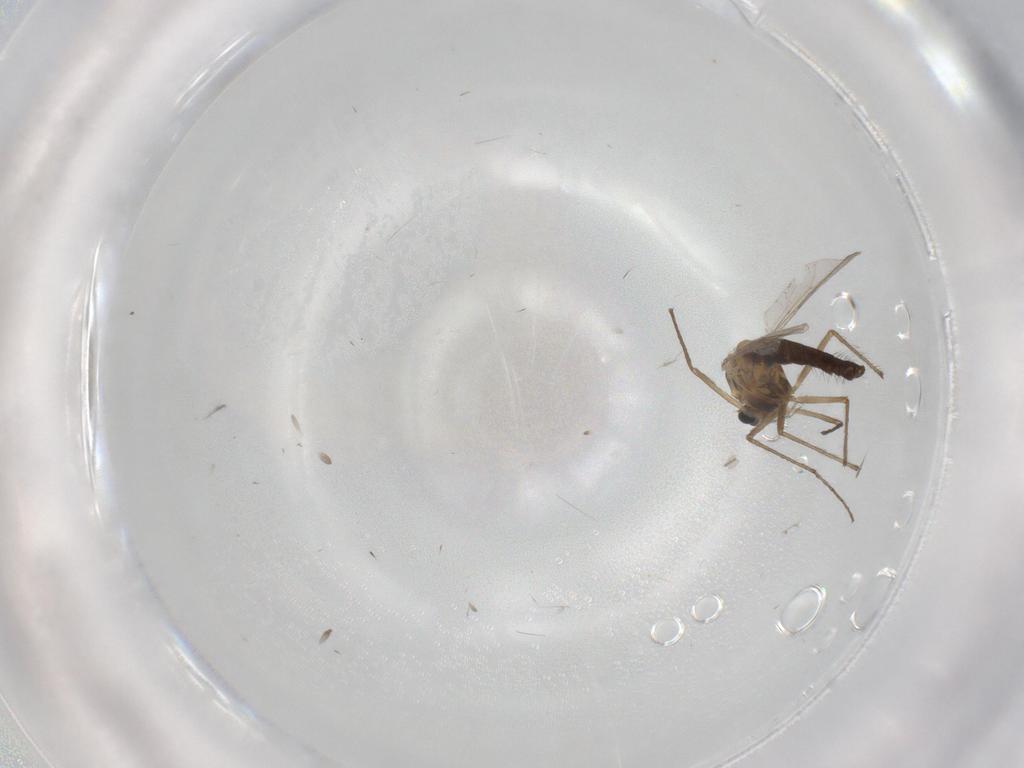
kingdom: Animalia
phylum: Arthropoda
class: Insecta
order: Diptera
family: Chironomidae
